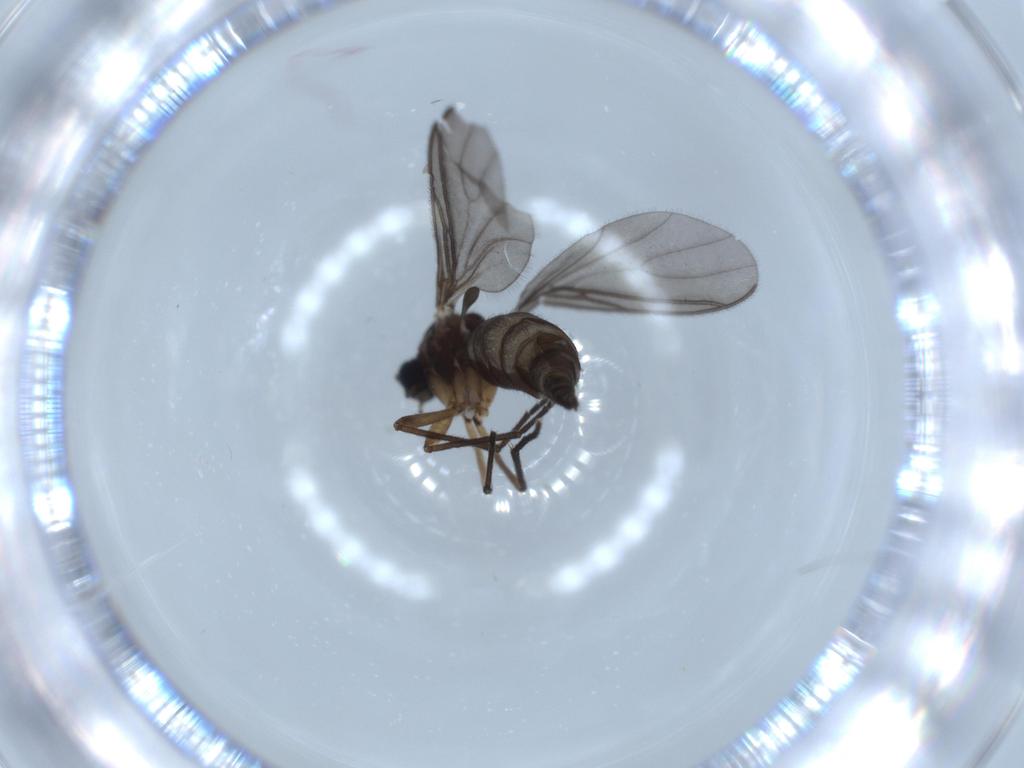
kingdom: Animalia
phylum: Arthropoda
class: Insecta
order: Diptera
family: Sciaridae
